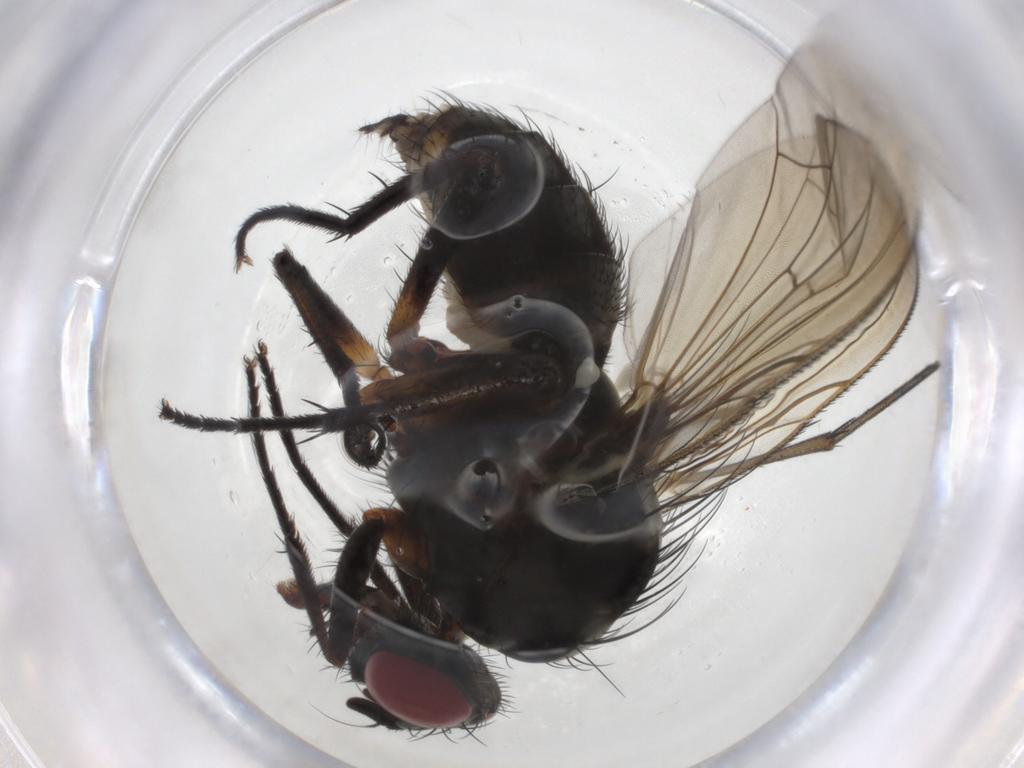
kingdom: Animalia
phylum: Arthropoda
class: Insecta
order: Diptera
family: Anthomyiidae
